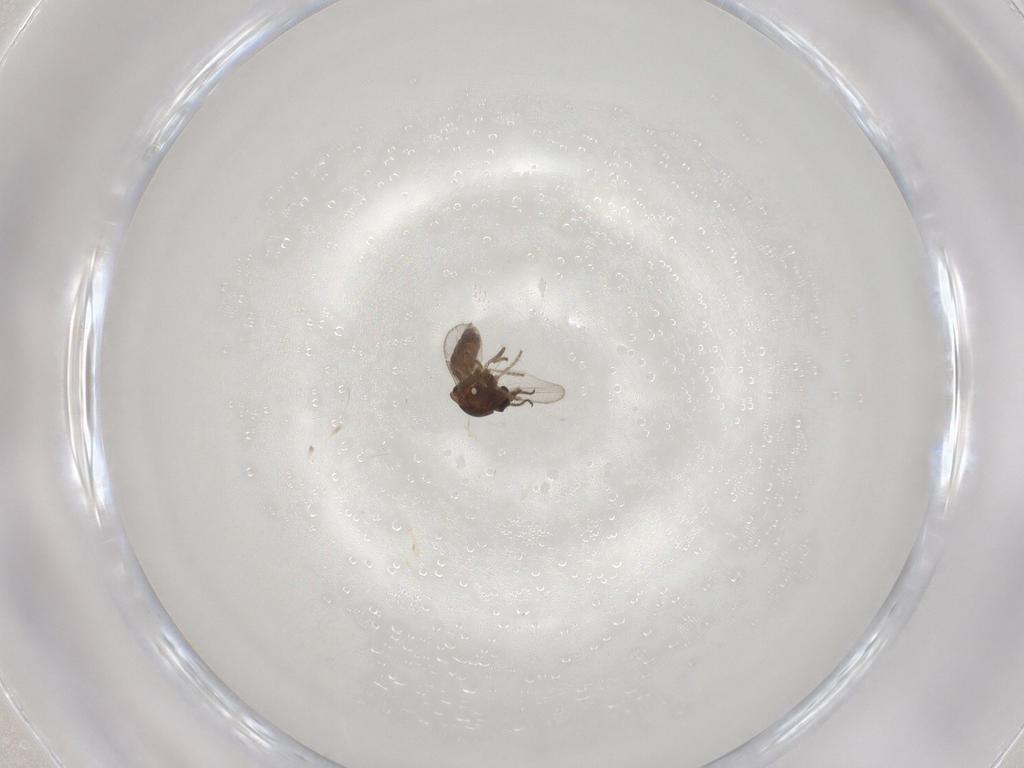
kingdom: Animalia
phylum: Arthropoda
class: Insecta
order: Diptera
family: Ceratopogonidae
